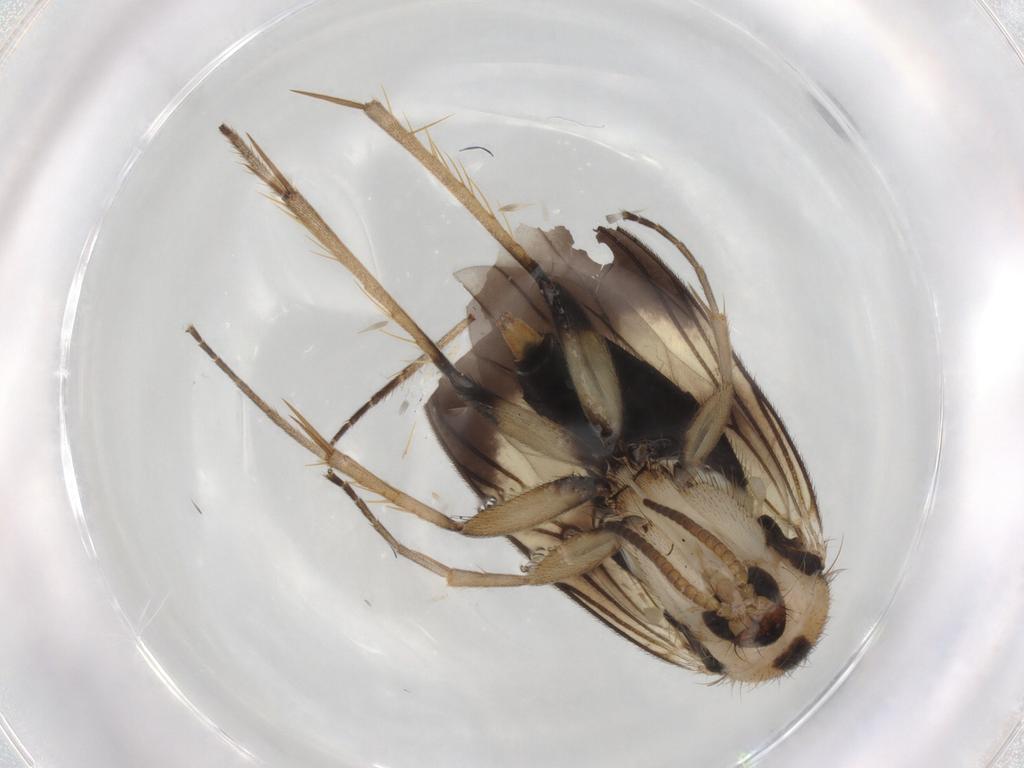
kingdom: Animalia
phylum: Arthropoda
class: Insecta
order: Diptera
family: Mycetophilidae
